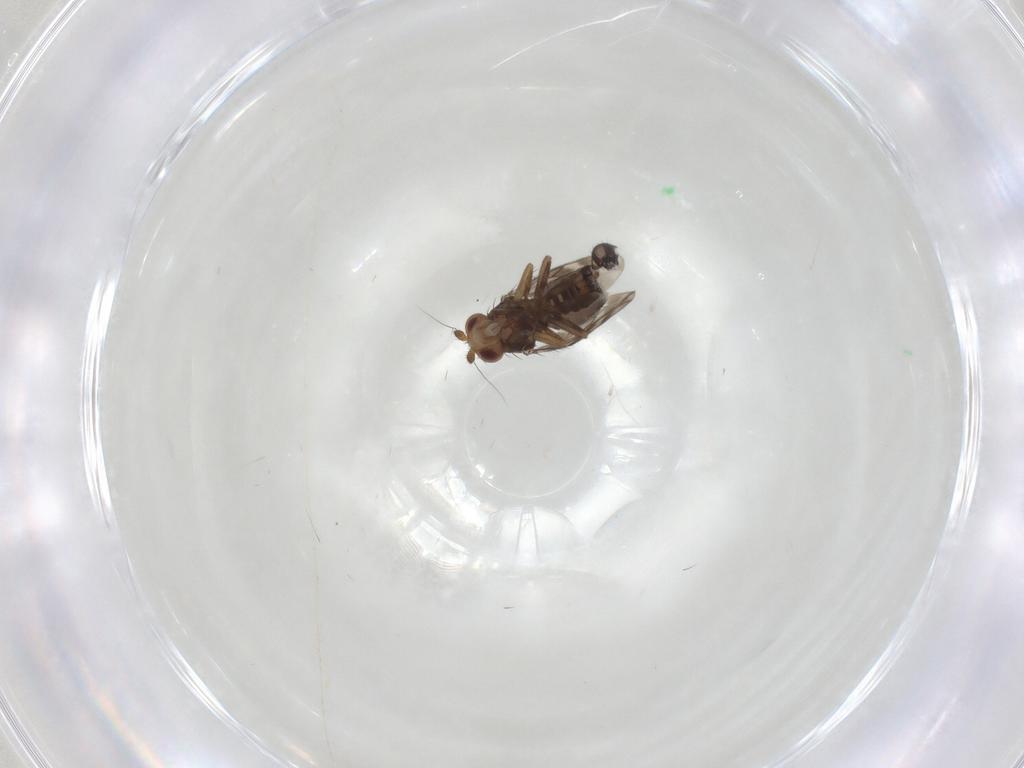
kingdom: Animalia
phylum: Arthropoda
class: Insecta
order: Diptera
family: Sphaeroceridae
